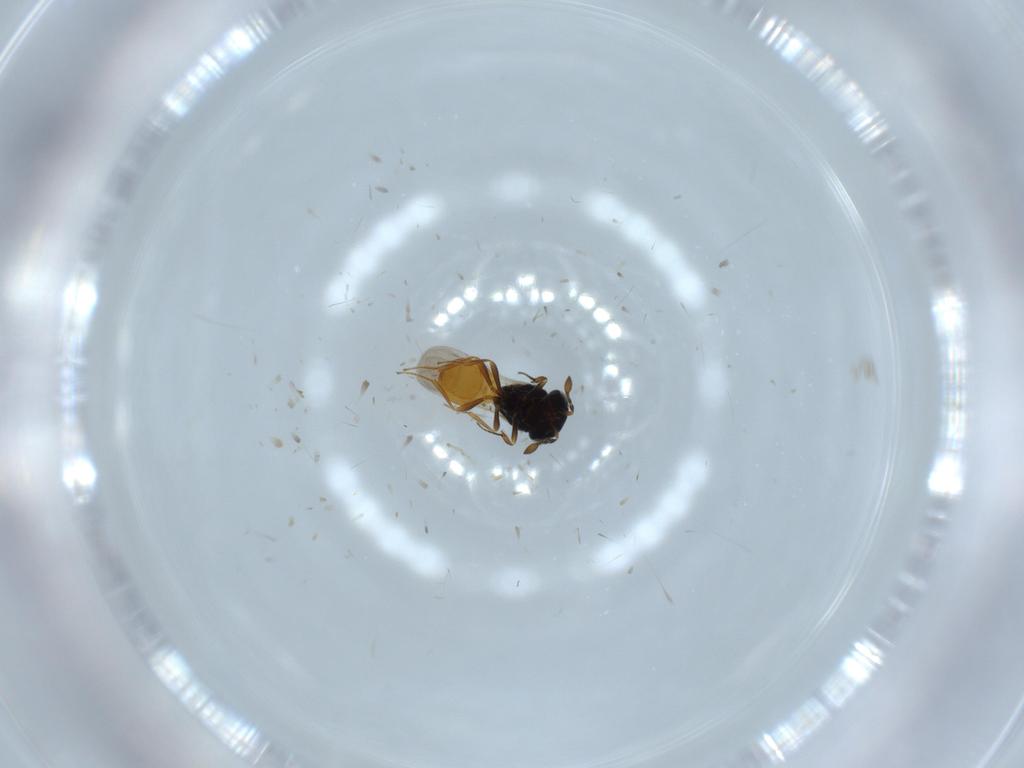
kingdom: Animalia
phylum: Arthropoda
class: Insecta
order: Hymenoptera
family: Scelionidae
